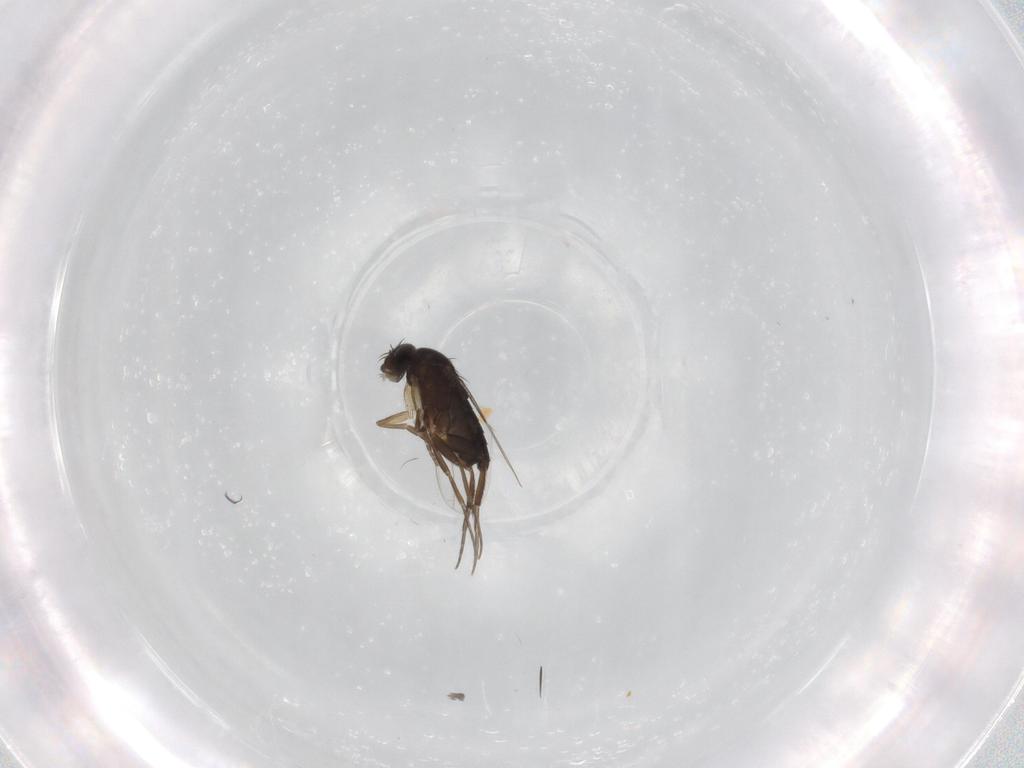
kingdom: Animalia
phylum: Arthropoda
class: Insecta
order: Diptera
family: Phoridae
